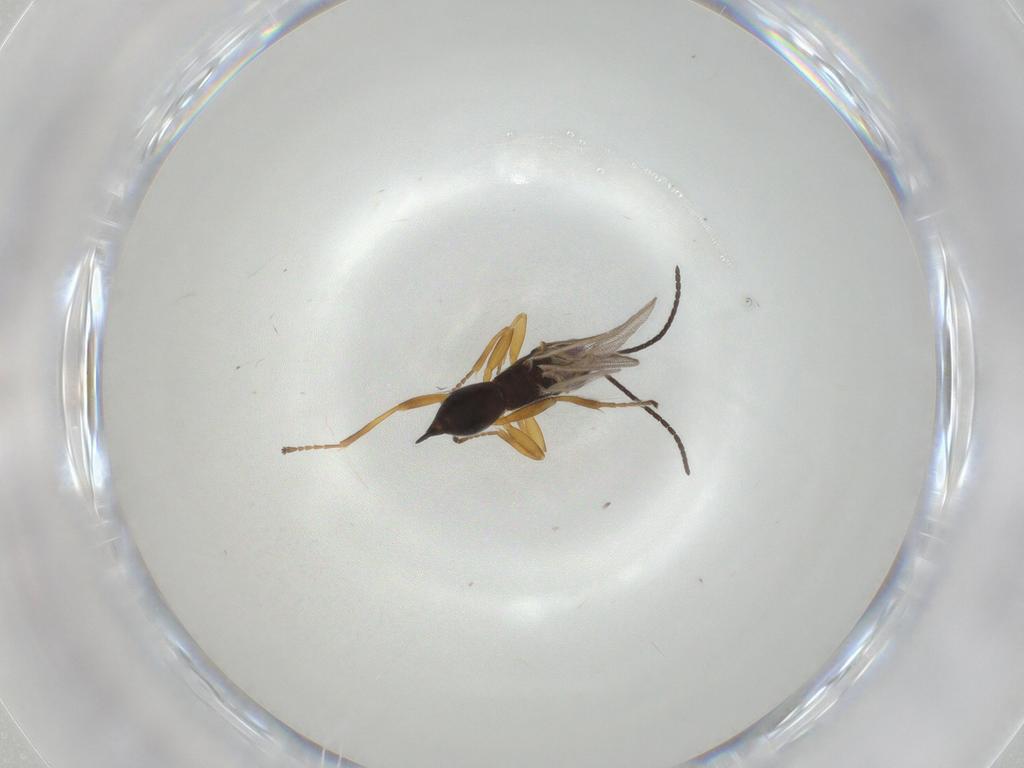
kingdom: Animalia
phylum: Arthropoda
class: Insecta
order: Hymenoptera
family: Braconidae
